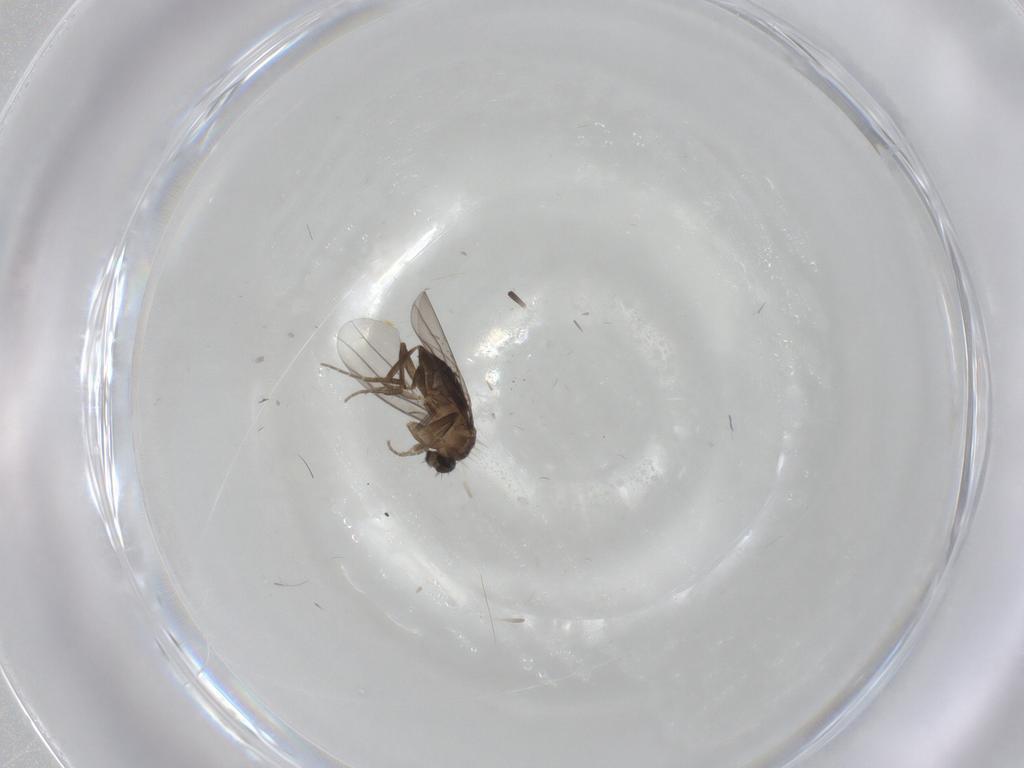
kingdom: Animalia
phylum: Arthropoda
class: Insecta
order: Diptera
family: Phoridae
